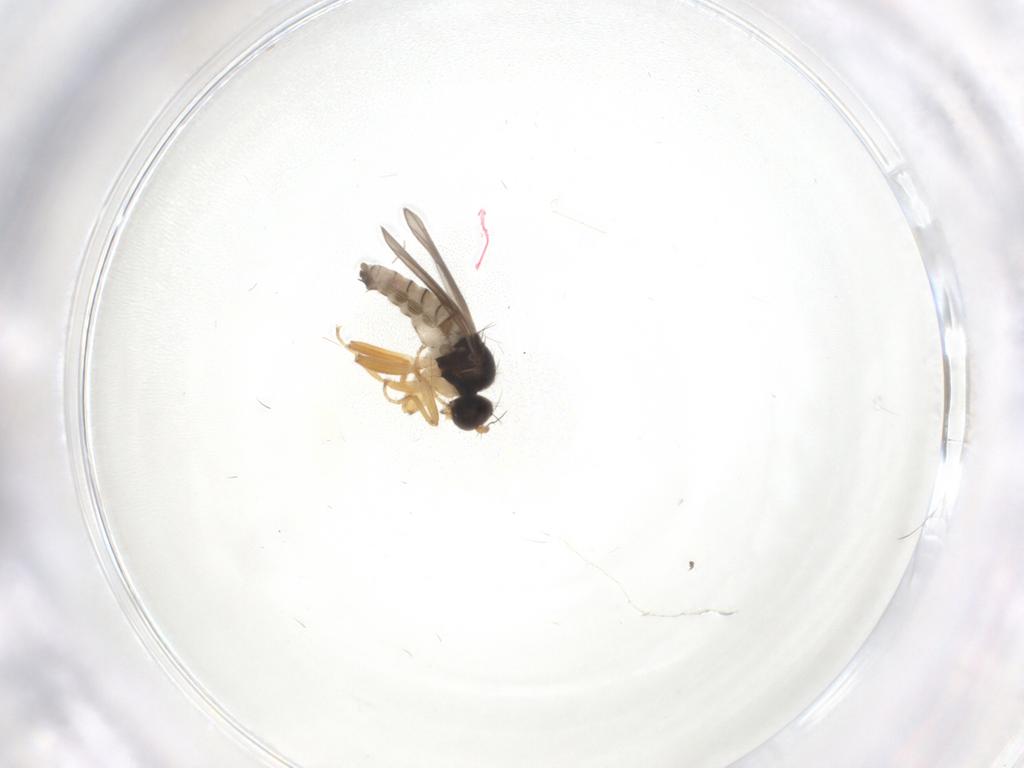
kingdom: Animalia
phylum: Arthropoda
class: Insecta
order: Diptera
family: Hybotidae
